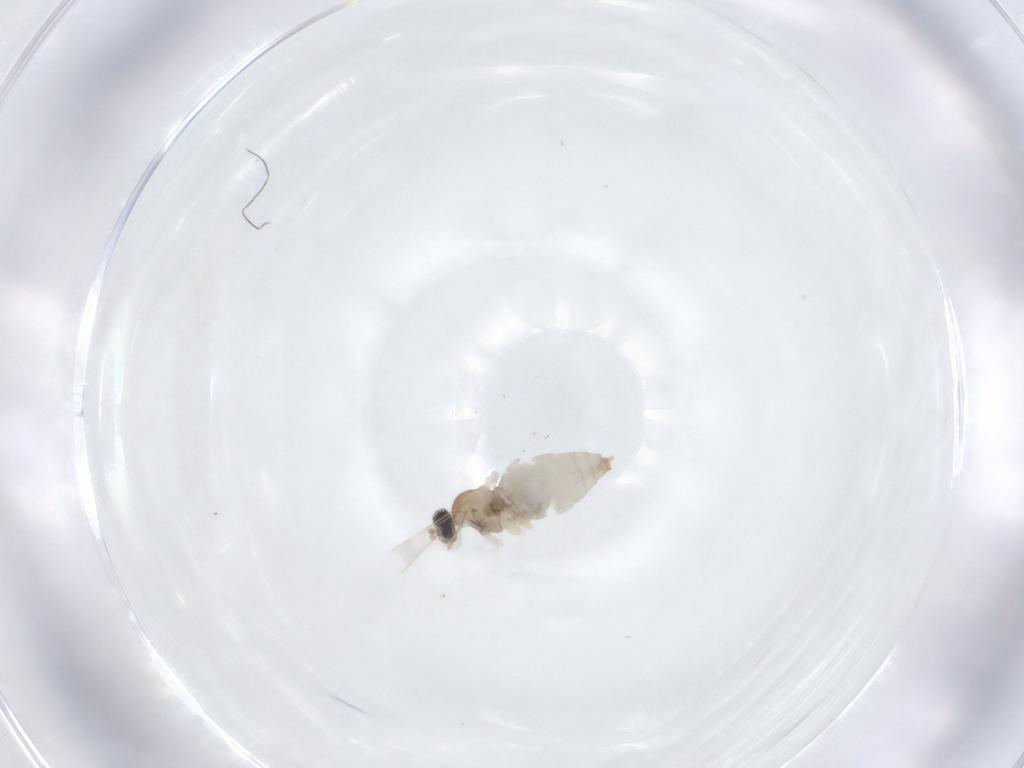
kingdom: Animalia
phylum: Arthropoda
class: Insecta
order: Diptera
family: Cecidomyiidae
